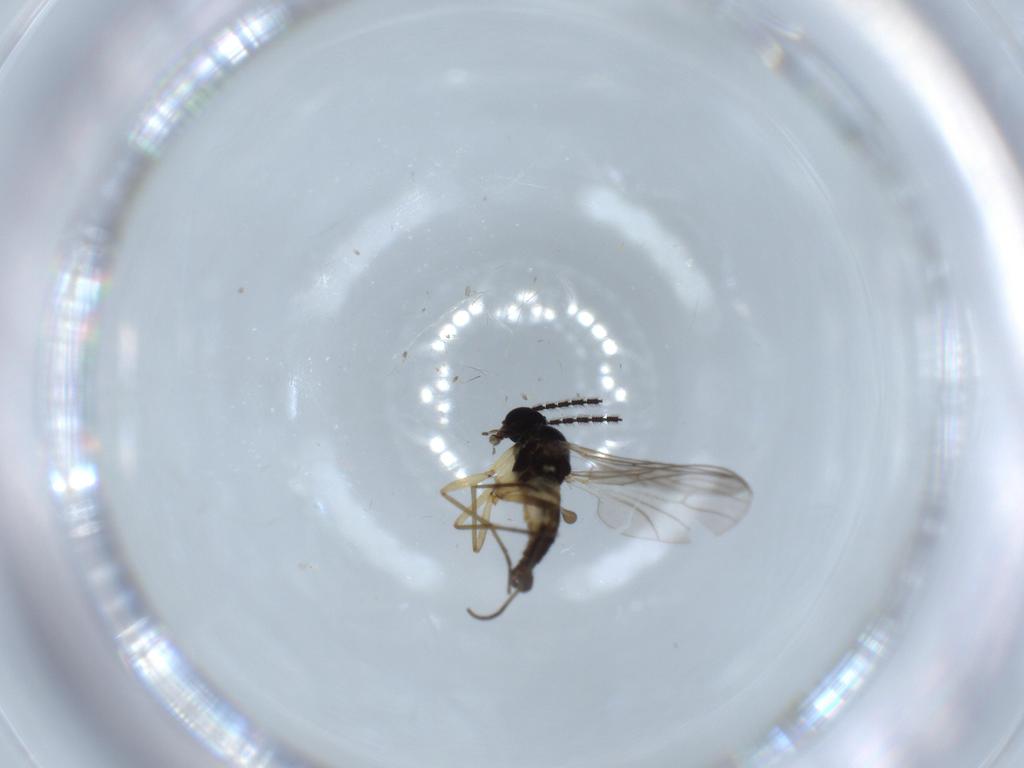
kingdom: Animalia
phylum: Arthropoda
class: Insecta
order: Diptera
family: Sciaridae
